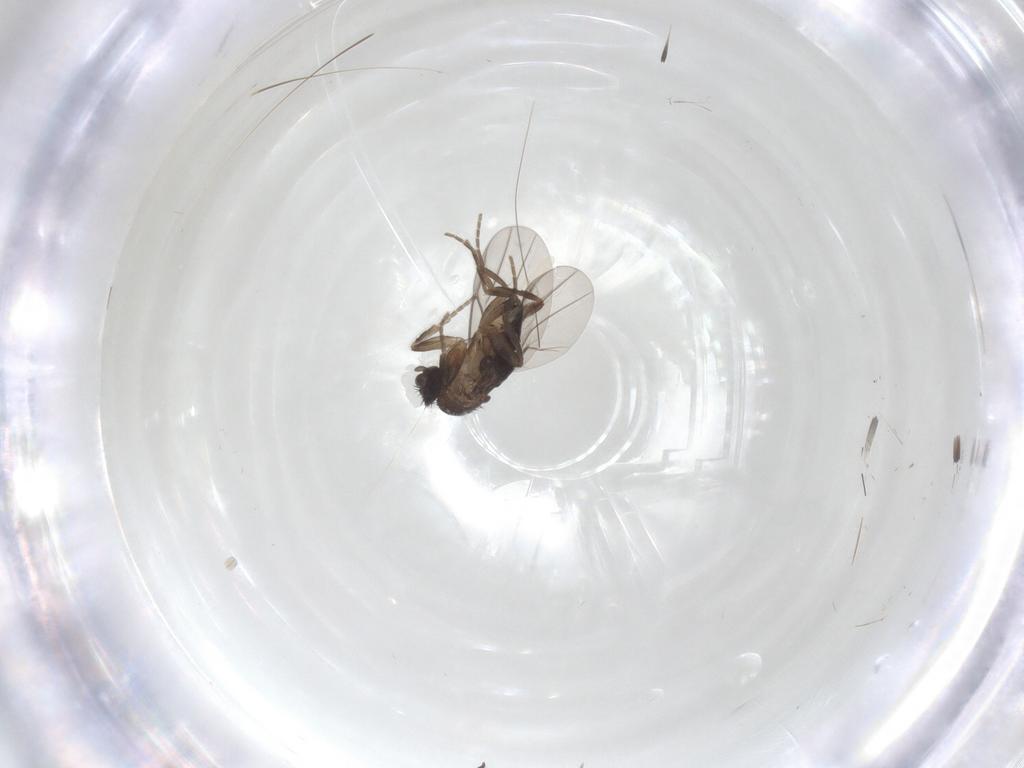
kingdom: Animalia
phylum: Arthropoda
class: Insecta
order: Diptera
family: Phoridae
